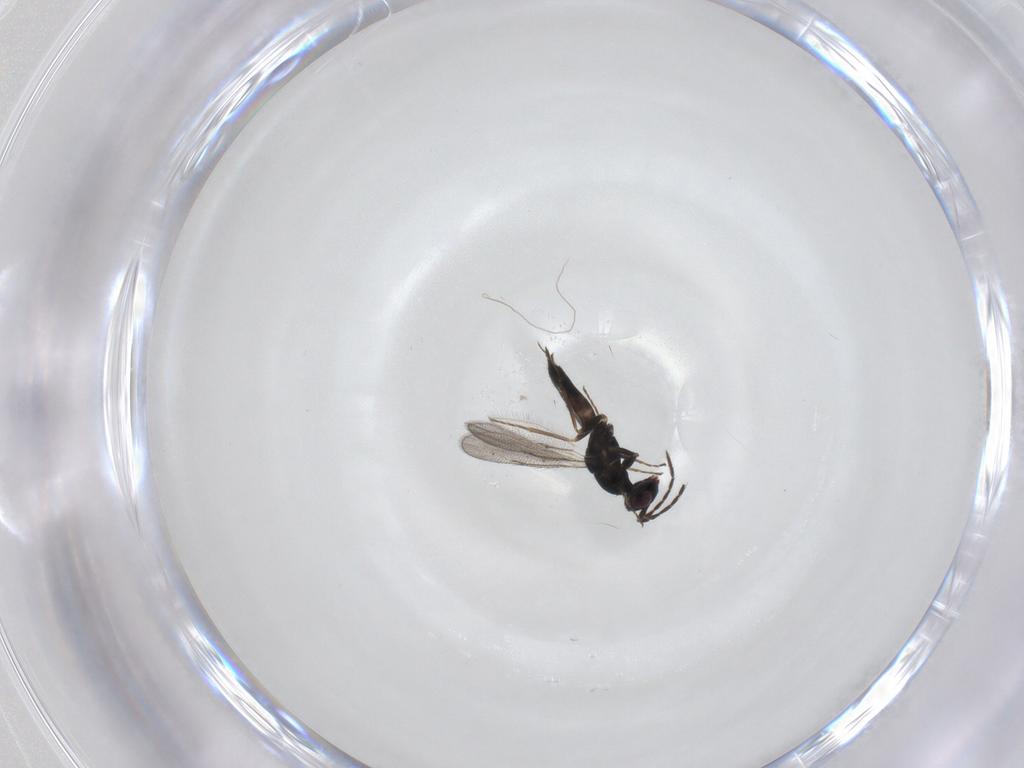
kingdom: Animalia
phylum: Arthropoda
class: Insecta
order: Hymenoptera
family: Eulophidae
